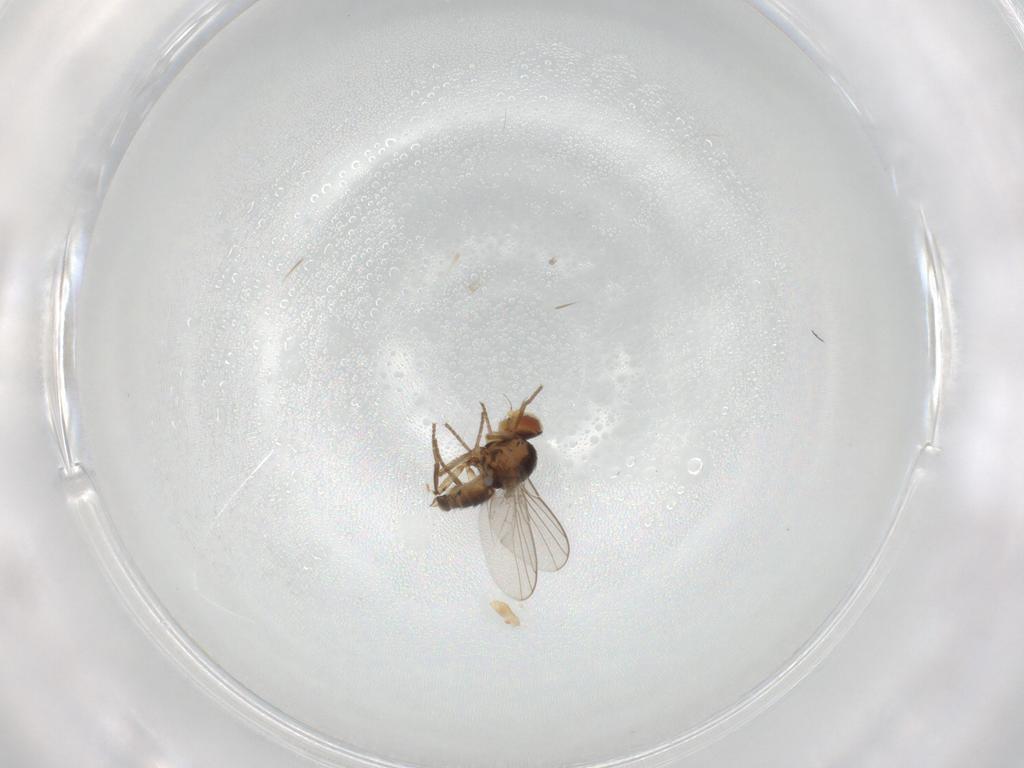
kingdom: Animalia
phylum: Arthropoda
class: Insecta
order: Diptera
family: Agromyzidae
